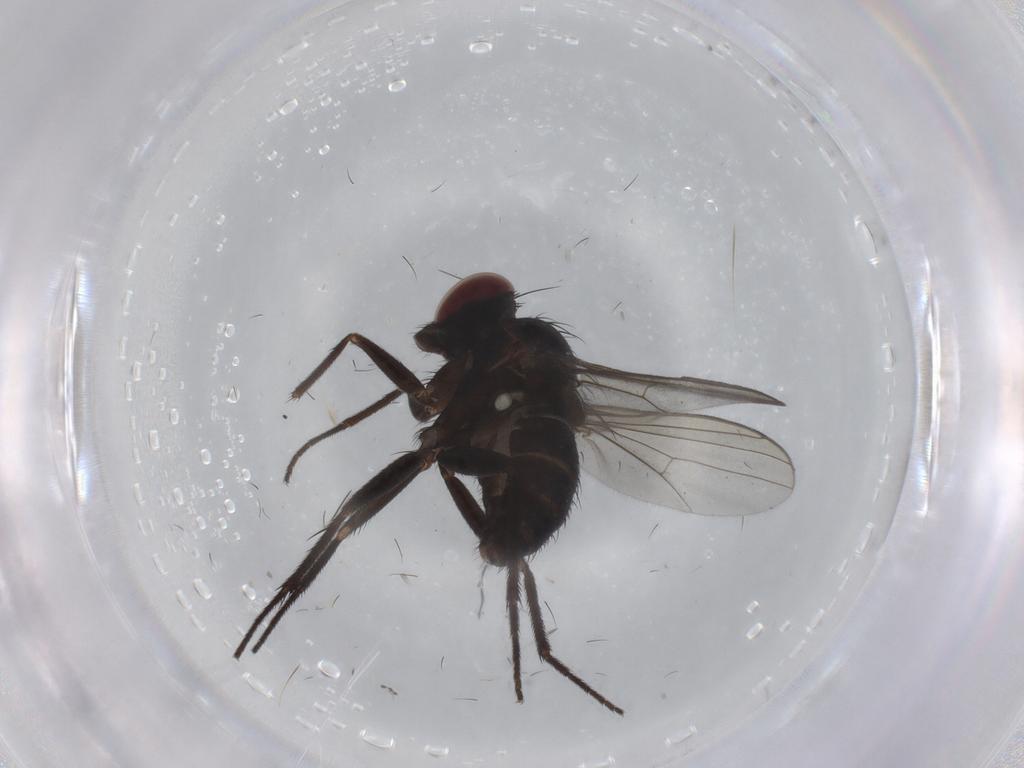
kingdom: Animalia
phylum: Arthropoda
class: Insecta
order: Diptera
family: Dolichopodidae
